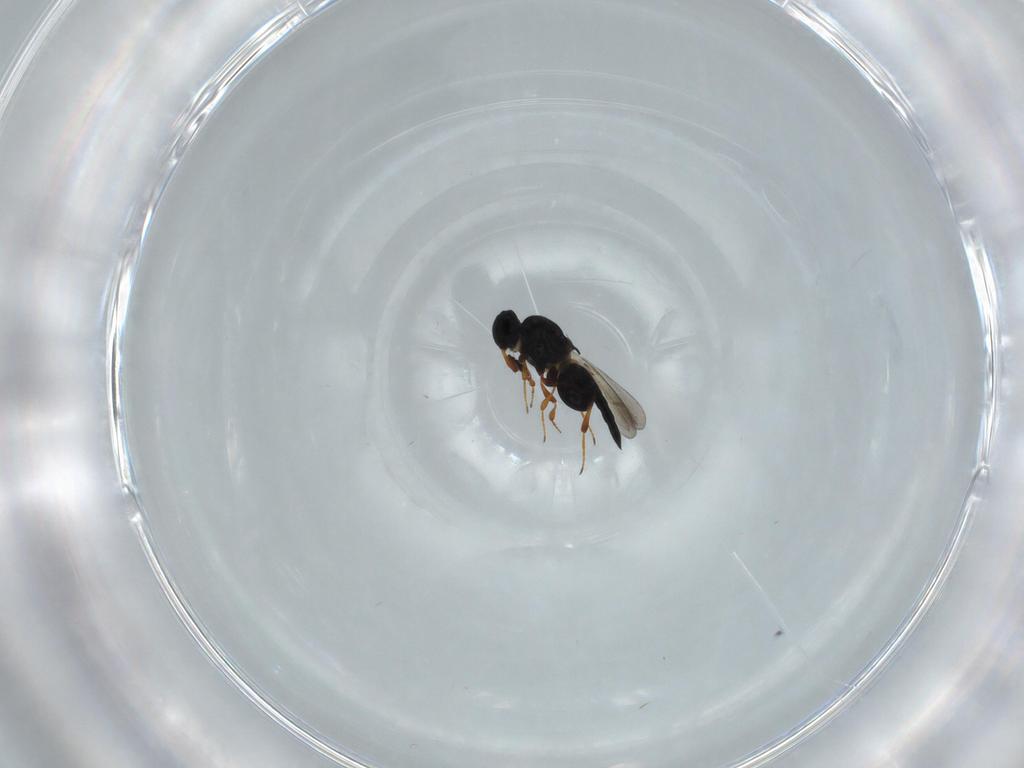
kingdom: Animalia
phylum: Arthropoda
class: Insecta
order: Hymenoptera
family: Platygastridae
